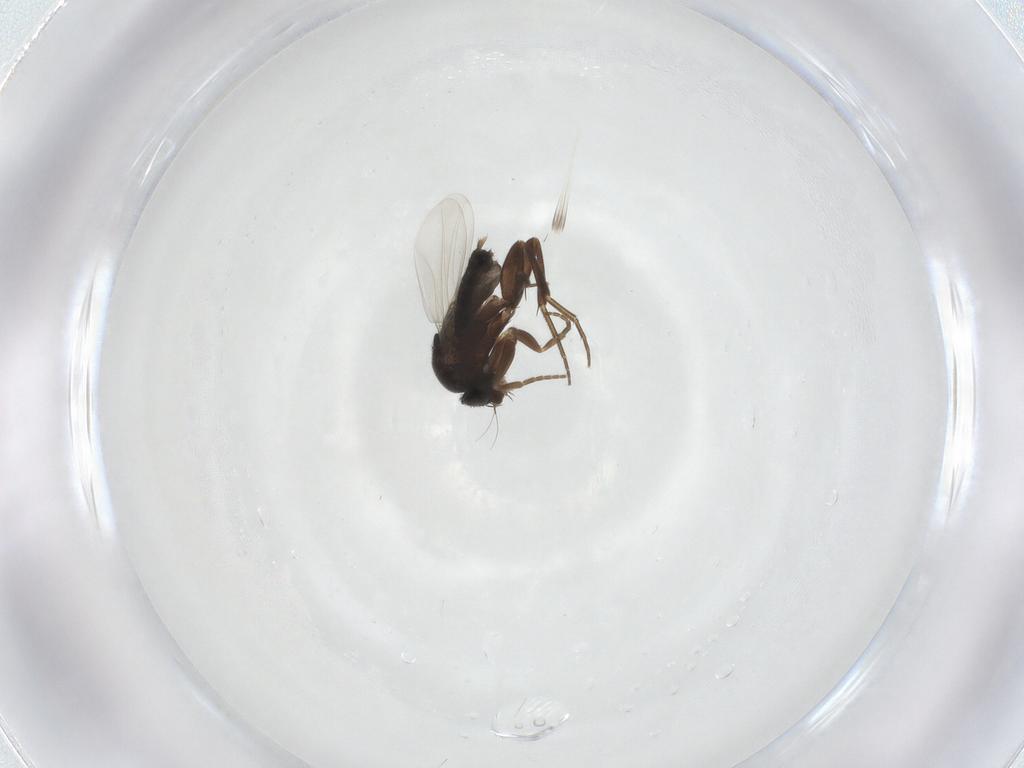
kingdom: Animalia
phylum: Arthropoda
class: Insecta
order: Diptera
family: Phoridae
